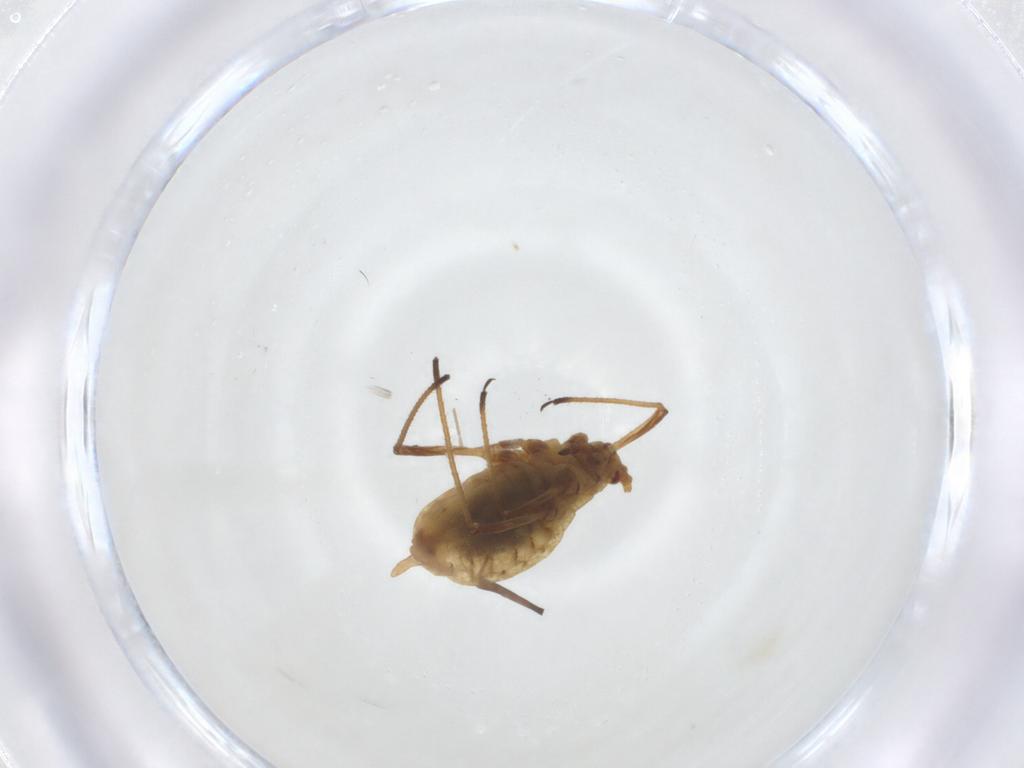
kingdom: Animalia
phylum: Arthropoda
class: Insecta
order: Hemiptera
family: Aphididae
